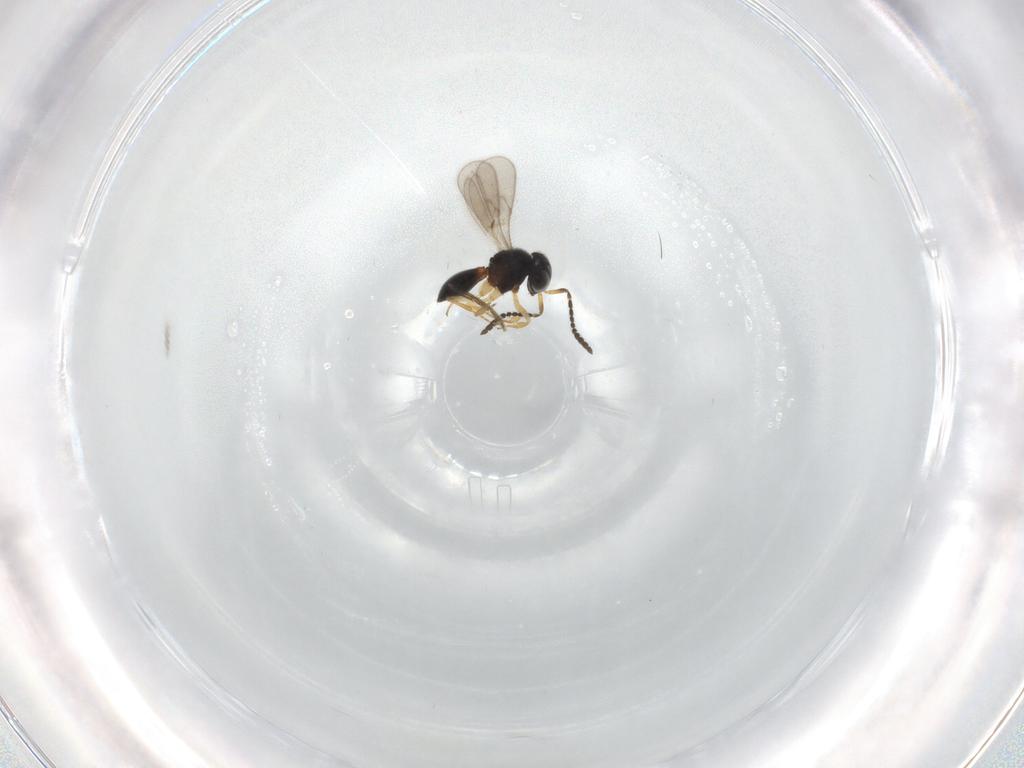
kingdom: Animalia
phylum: Arthropoda
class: Insecta
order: Hymenoptera
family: Scelionidae
